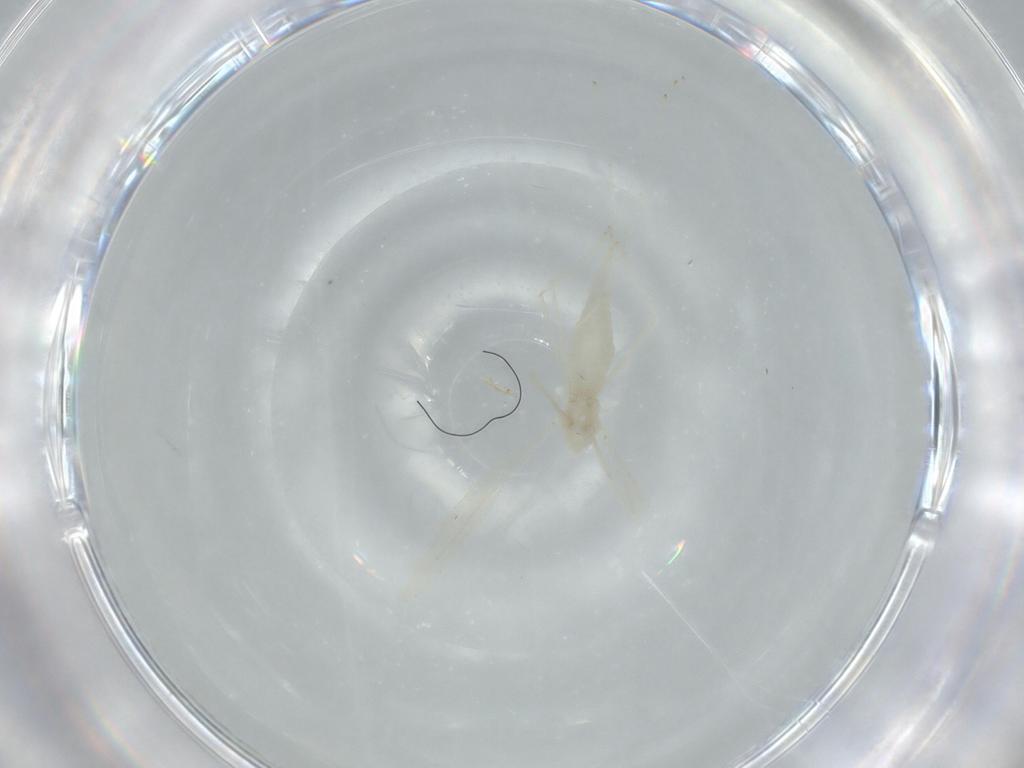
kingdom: Animalia
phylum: Arthropoda
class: Insecta
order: Diptera
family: Cecidomyiidae
